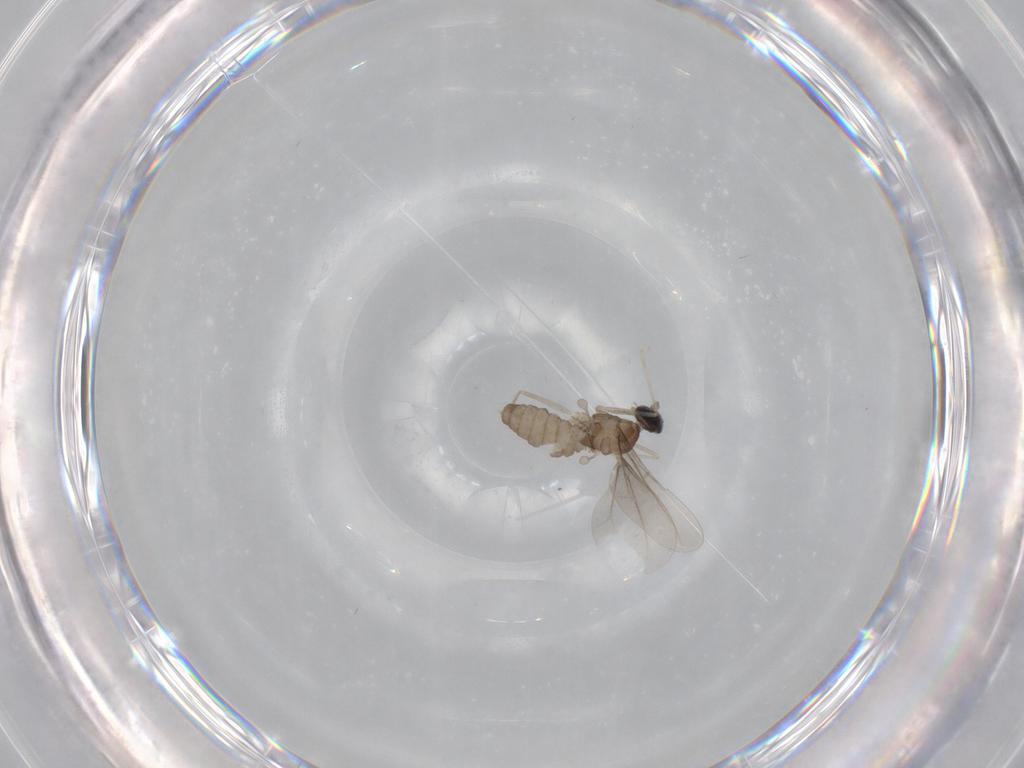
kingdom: Animalia
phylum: Arthropoda
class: Insecta
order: Diptera
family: Cecidomyiidae
